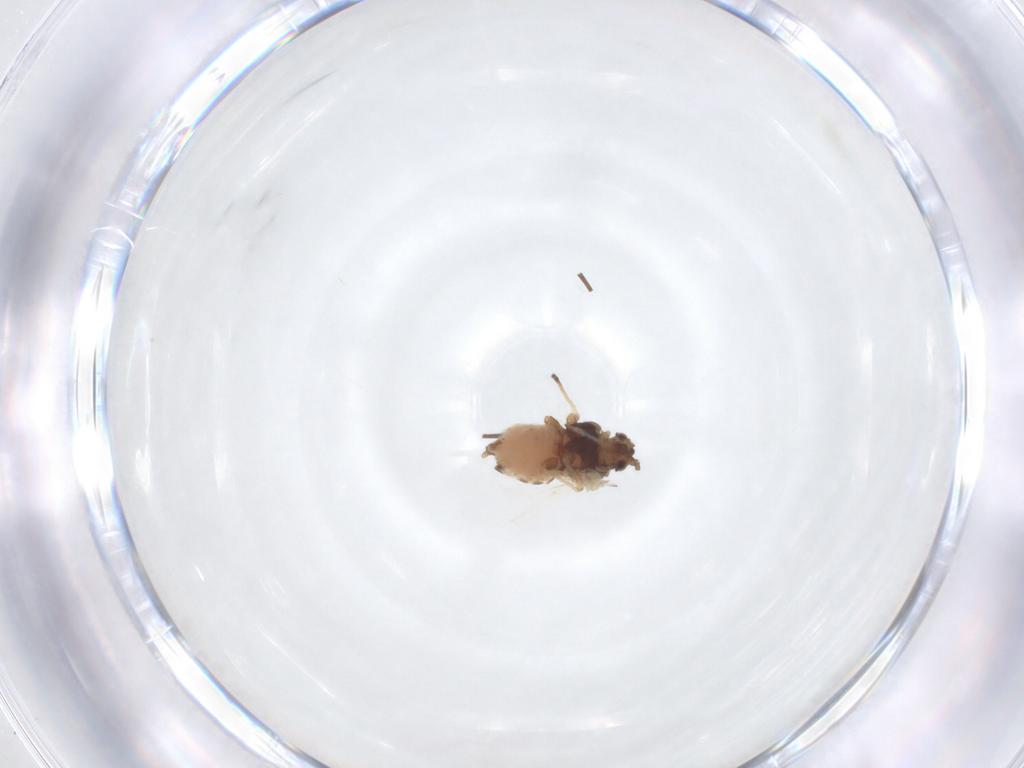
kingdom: Animalia
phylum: Arthropoda
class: Insecta
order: Hemiptera
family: Aphididae
